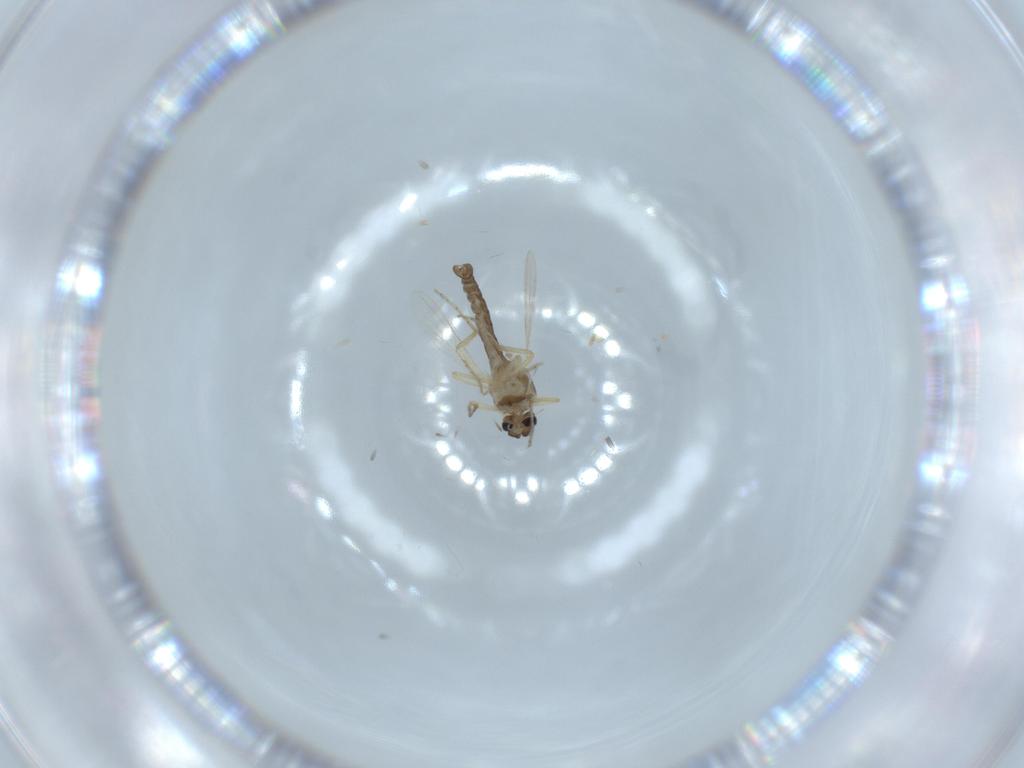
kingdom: Animalia
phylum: Arthropoda
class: Insecta
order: Diptera
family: Ceratopogonidae
